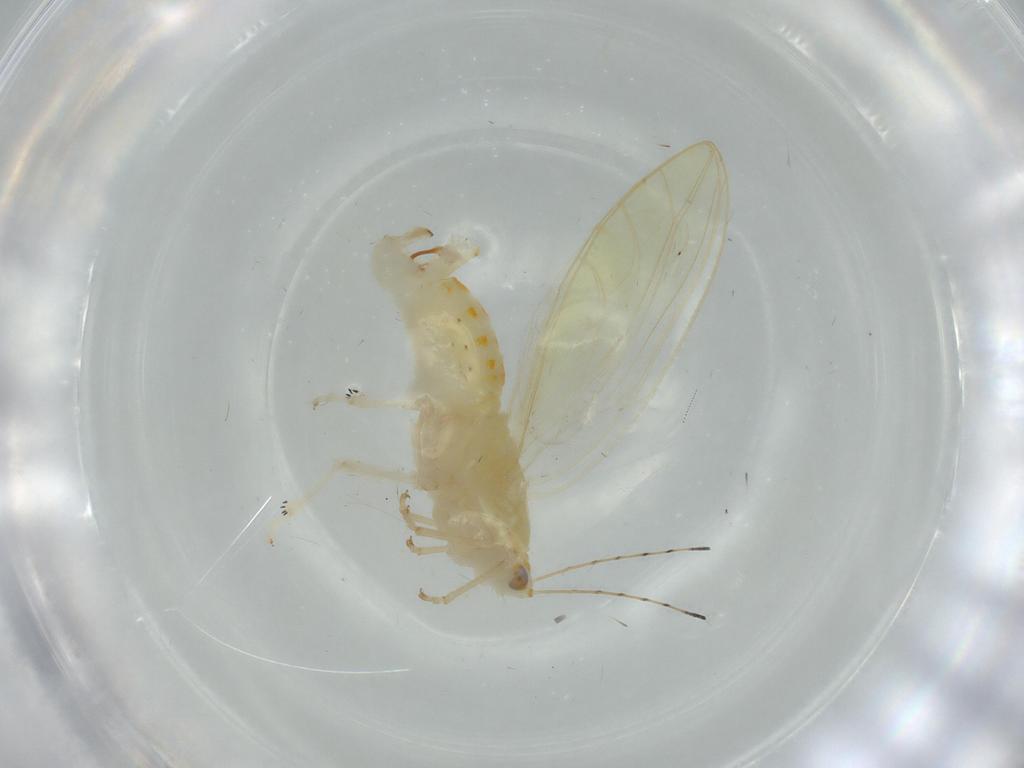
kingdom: Animalia
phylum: Arthropoda
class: Insecta
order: Hemiptera
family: Triozidae
